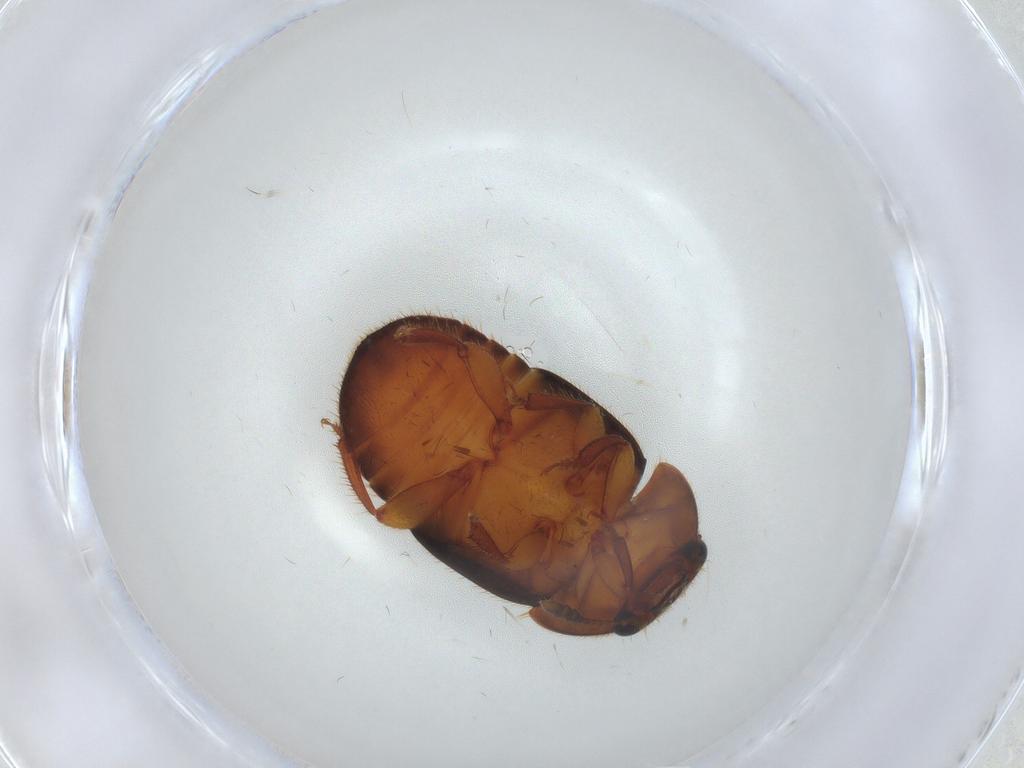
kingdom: Animalia
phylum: Arthropoda
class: Insecta
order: Coleoptera
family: Nitidulidae
